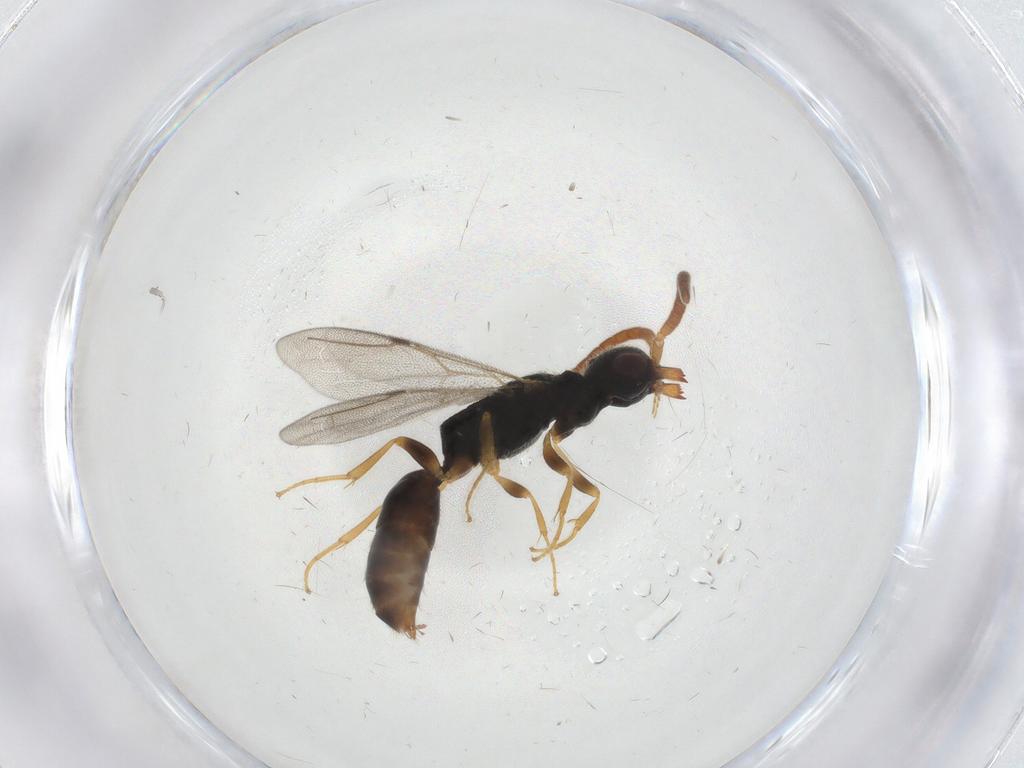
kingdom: Animalia
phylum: Arthropoda
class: Insecta
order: Hymenoptera
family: Bethylidae
